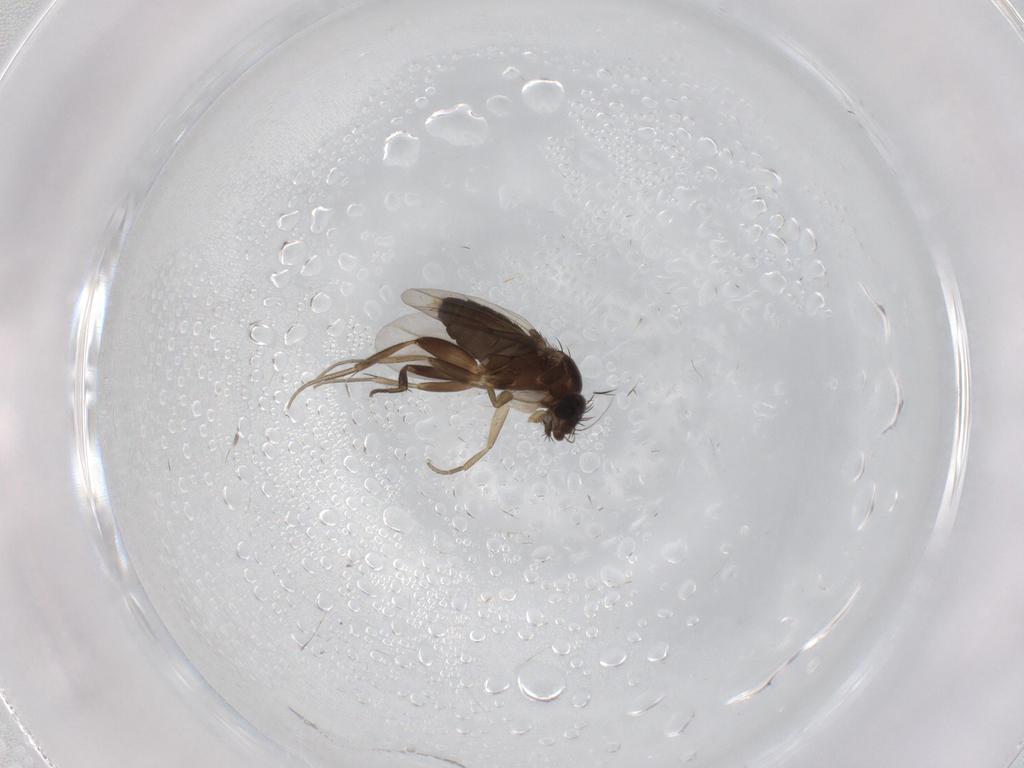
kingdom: Animalia
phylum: Arthropoda
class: Insecta
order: Diptera
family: Phoridae
